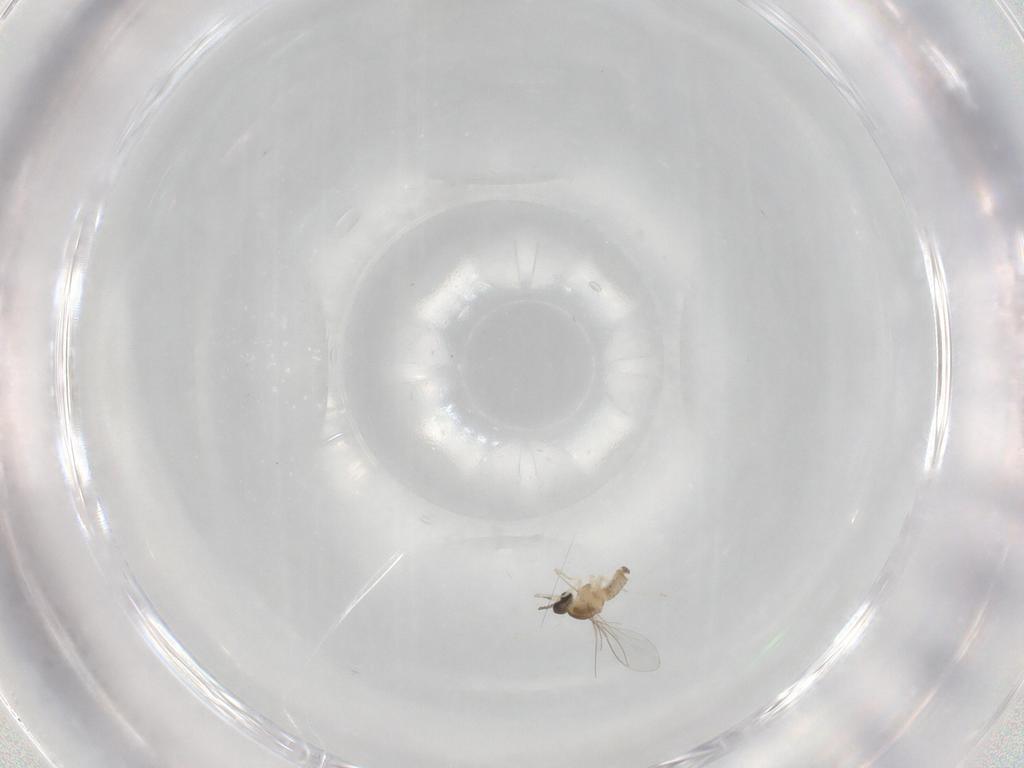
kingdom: Animalia
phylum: Arthropoda
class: Insecta
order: Diptera
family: Cecidomyiidae
